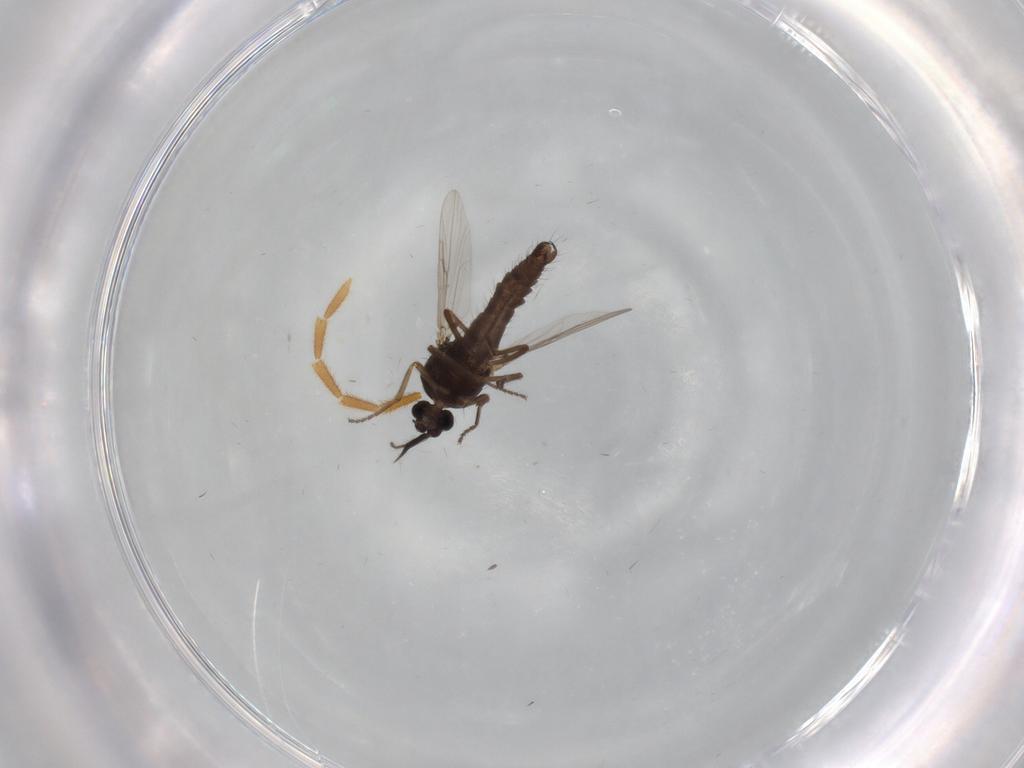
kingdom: Animalia
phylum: Arthropoda
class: Insecta
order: Diptera
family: Ceratopogonidae
